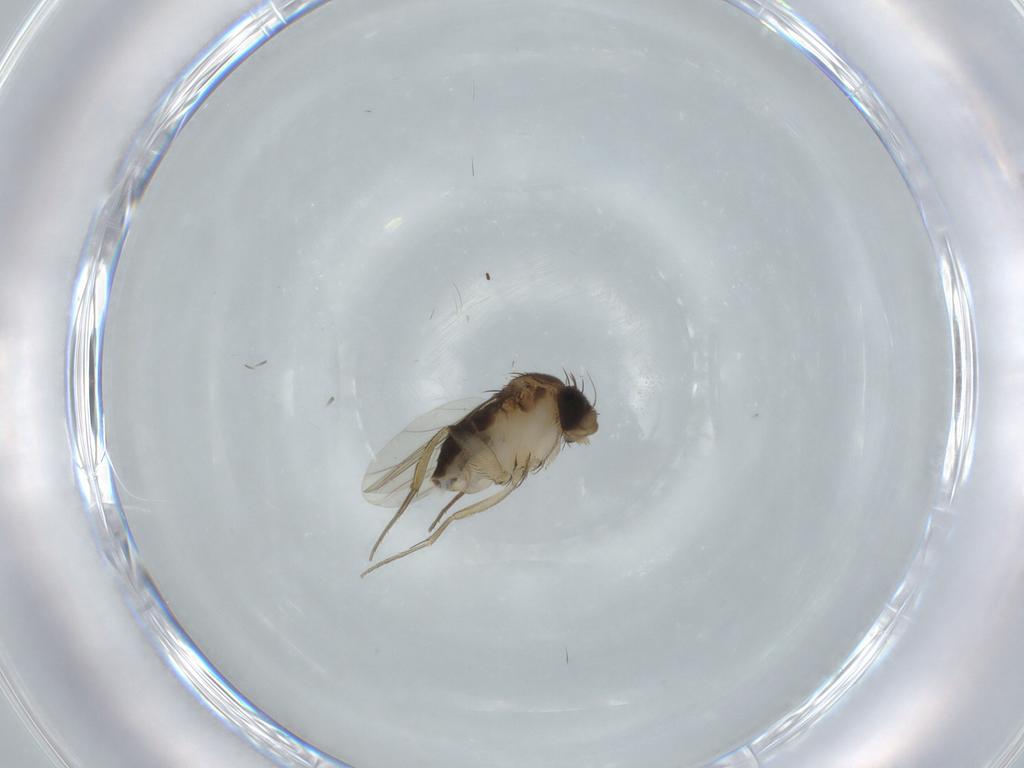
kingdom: Animalia
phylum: Arthropoda
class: Insecta
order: Diptera
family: Phoridae
